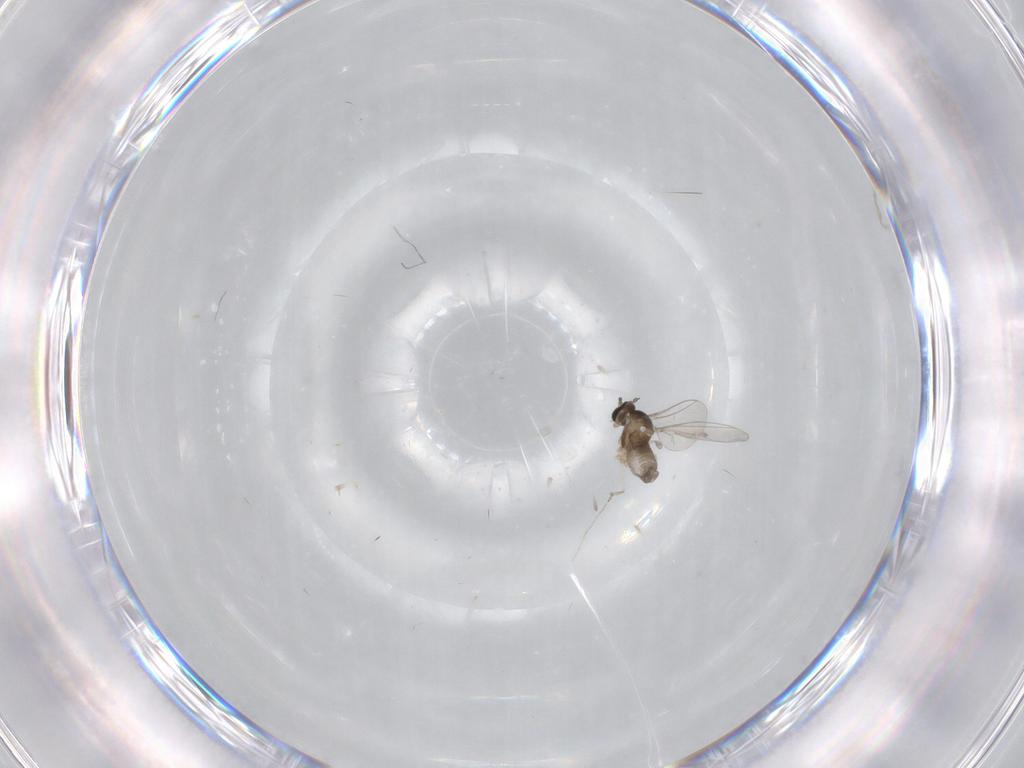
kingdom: Animalia
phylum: Arthropoda
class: Insecta
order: Diptera
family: Cecidomyiidae
